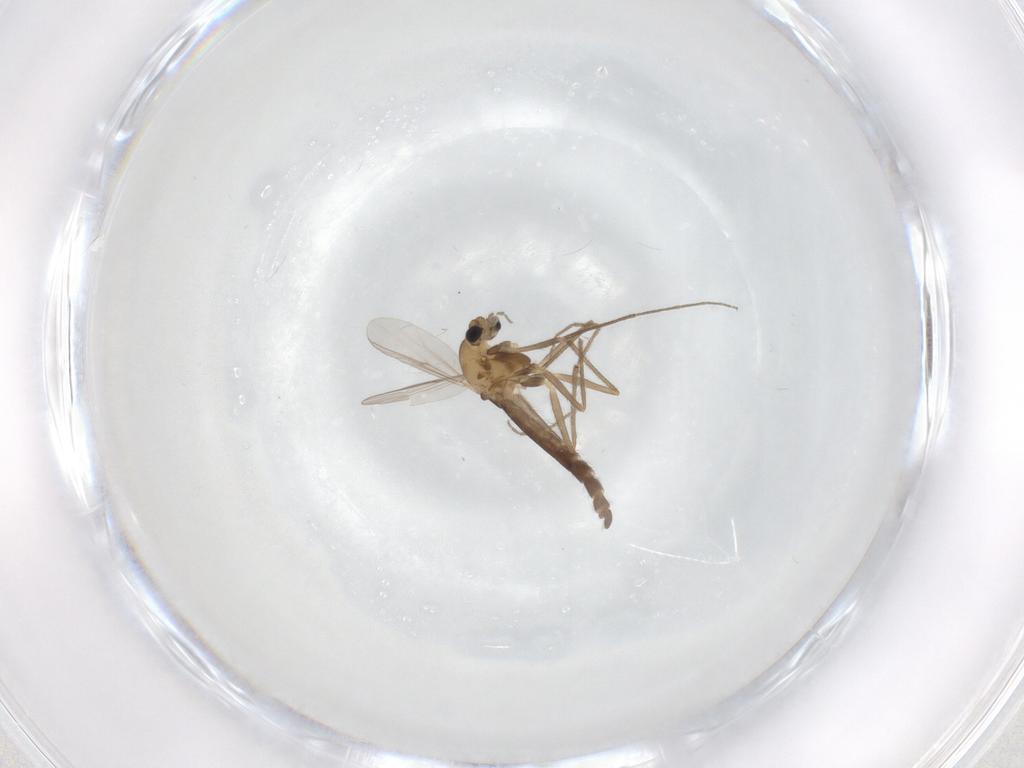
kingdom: Animalia
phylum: Arthropoda
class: Insecta
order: Diptera
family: Chironomidae
